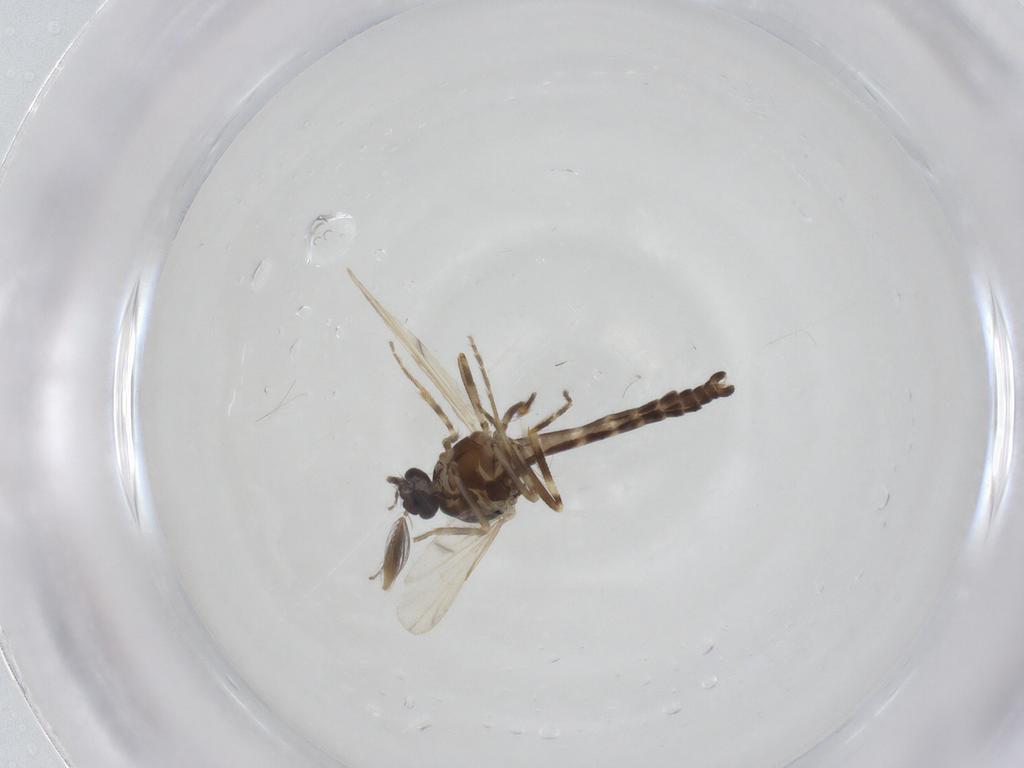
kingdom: Animalia
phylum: Arthropoda
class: Insecta
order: Diptera
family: Ceratopogonidae
